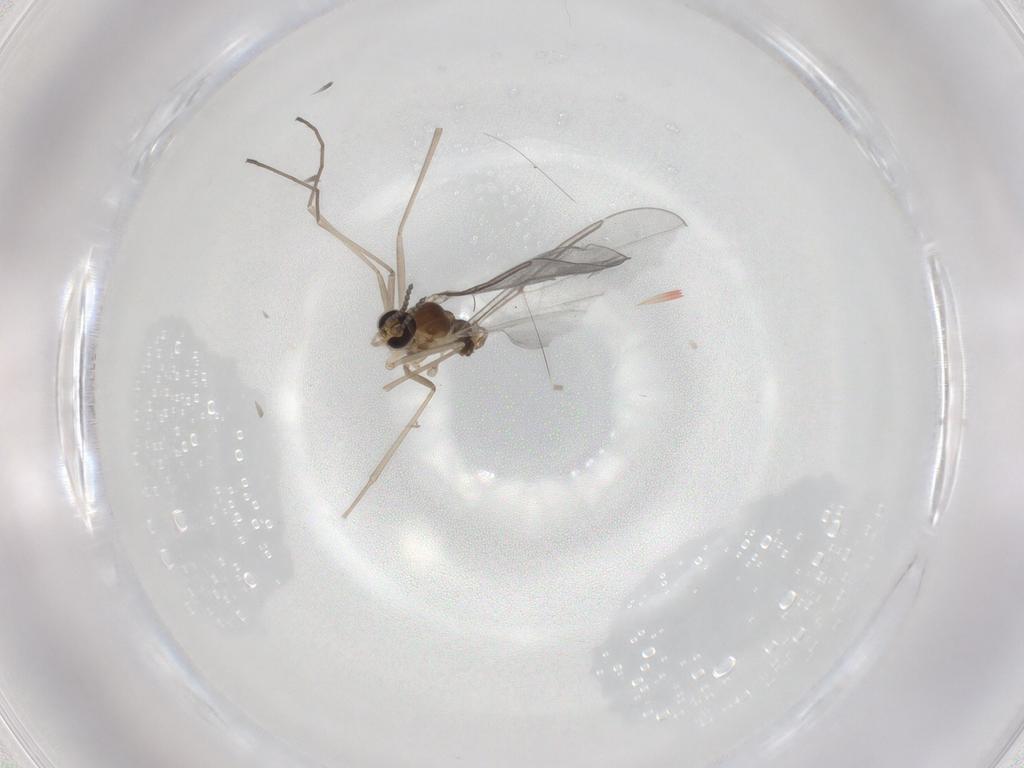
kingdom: Animalia
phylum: Arthropoda
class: Insecta
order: Diptera
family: Cecidomyiidae
